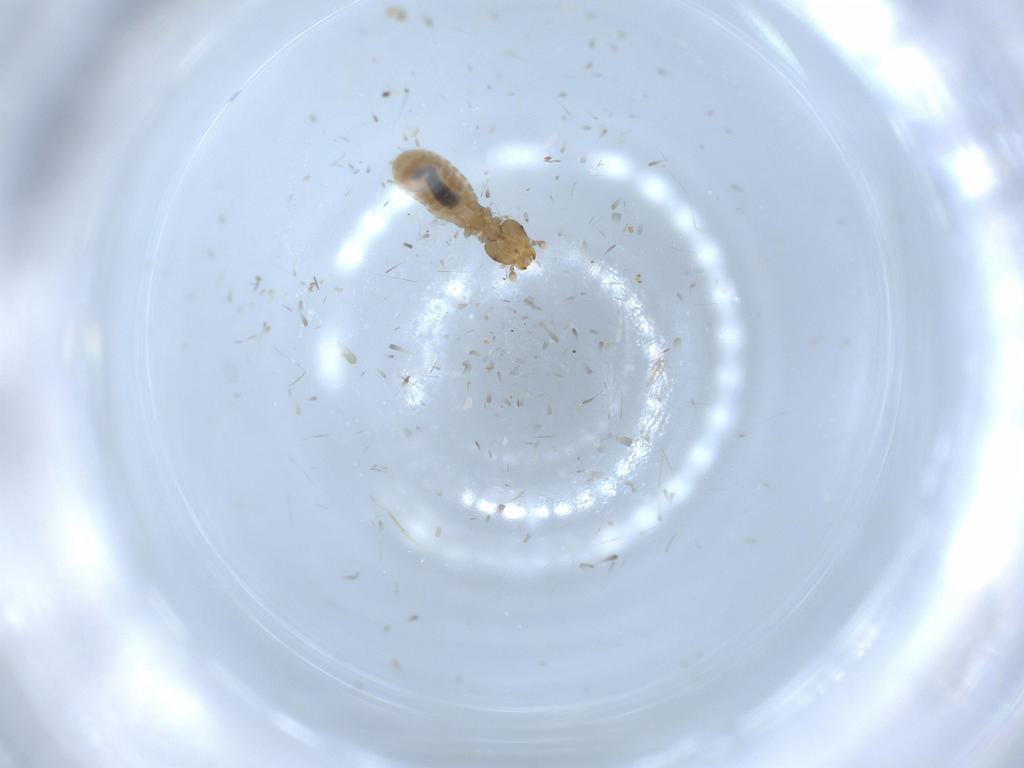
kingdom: Animalia
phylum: Arthropoda
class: Insecta
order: Psocodea
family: Liposcelididae
